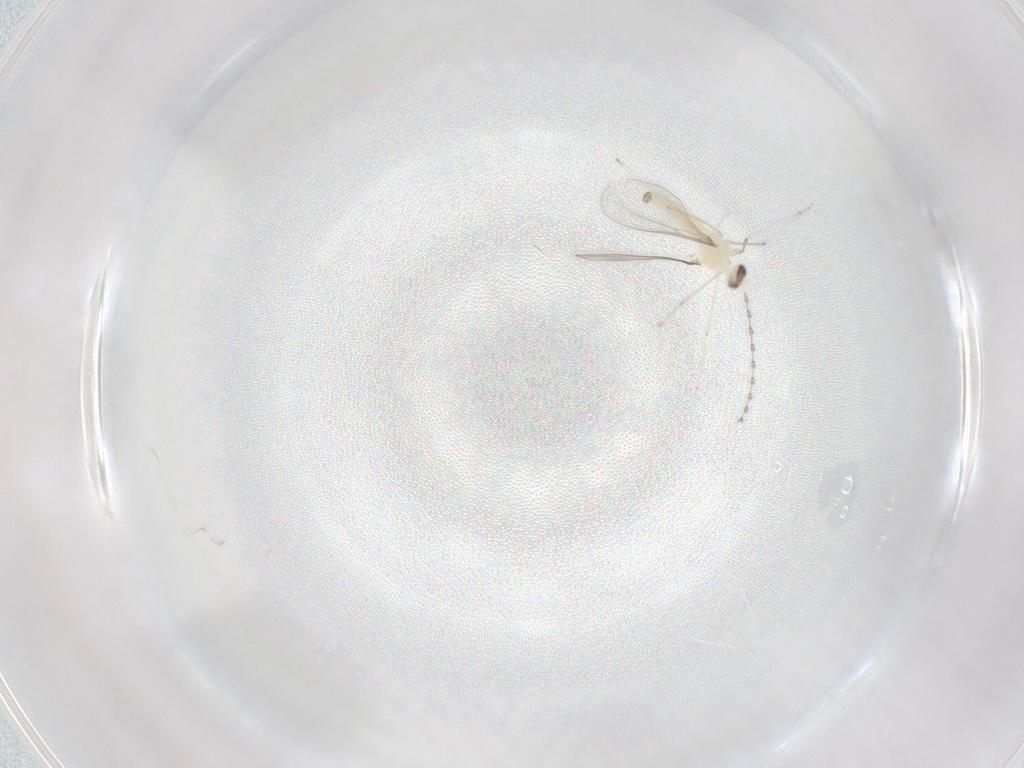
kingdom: Animalia
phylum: Arthropoda
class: Insecta
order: Diptera
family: Cecidomyiidae
